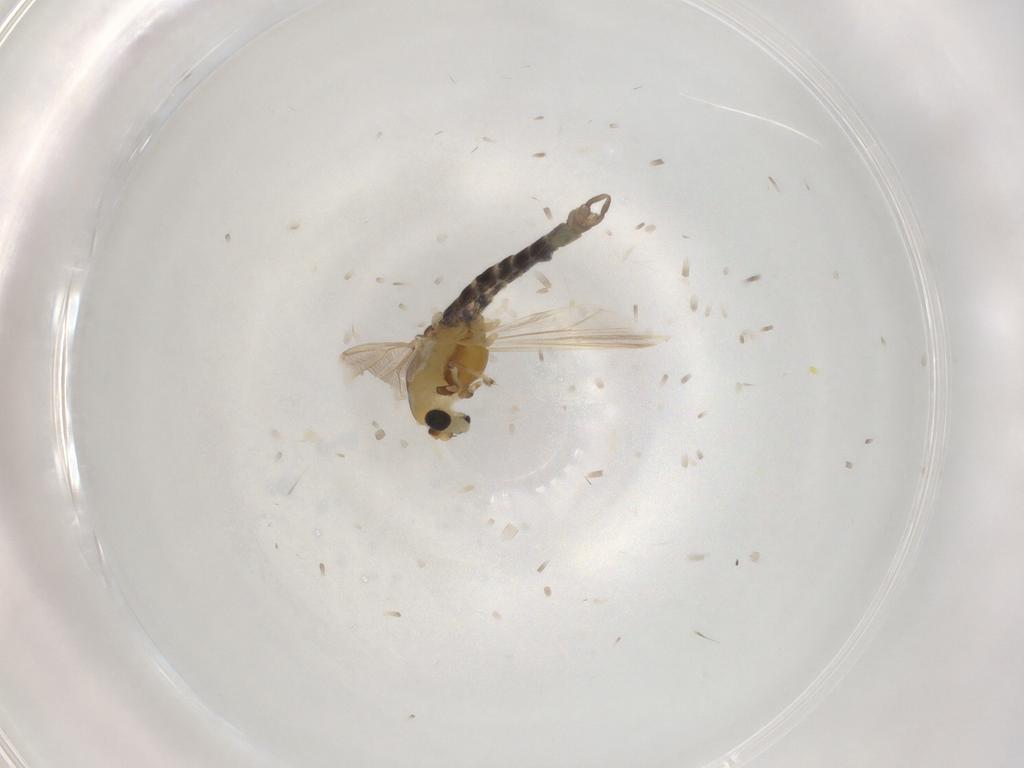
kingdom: Animalia
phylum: Arthropoda
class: Insecta
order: Diptera
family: Chironomidae
